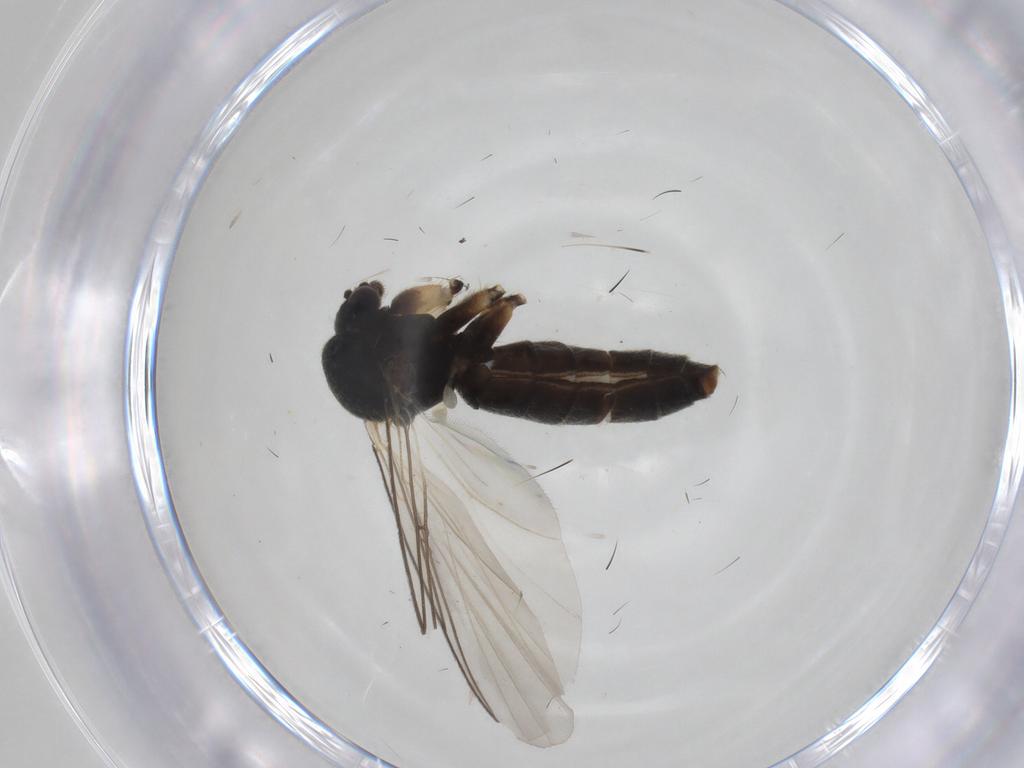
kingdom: Animalia
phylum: Arthropoda
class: Insecta
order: Diptera
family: Mycetophilidae
